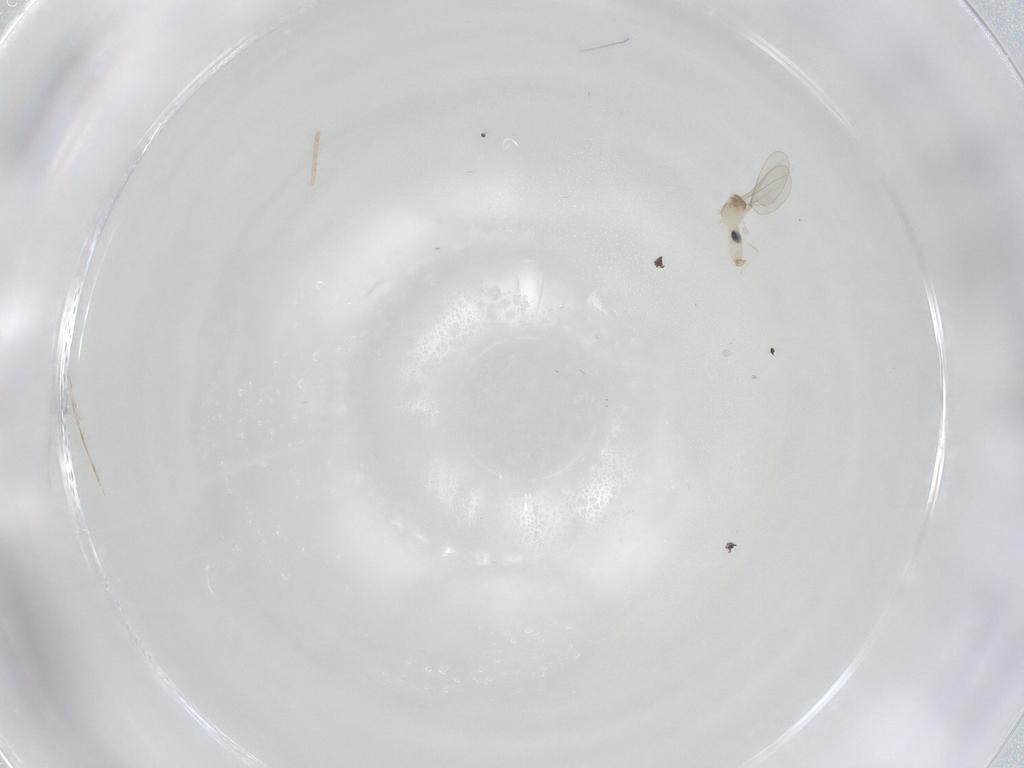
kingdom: Animalia
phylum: Arthropoda
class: Insecta
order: Diptera
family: Cecidomyiidae
